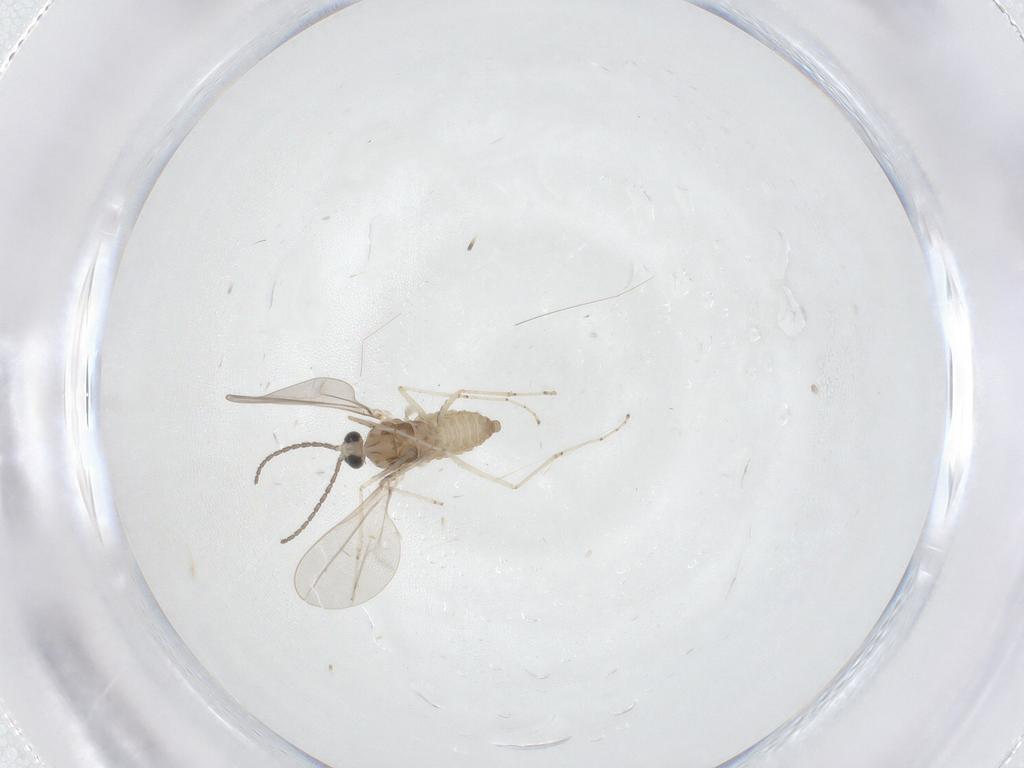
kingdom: Animalia
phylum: Arthropoda
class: Insecta
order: Diptera
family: Cecidomyiidae
